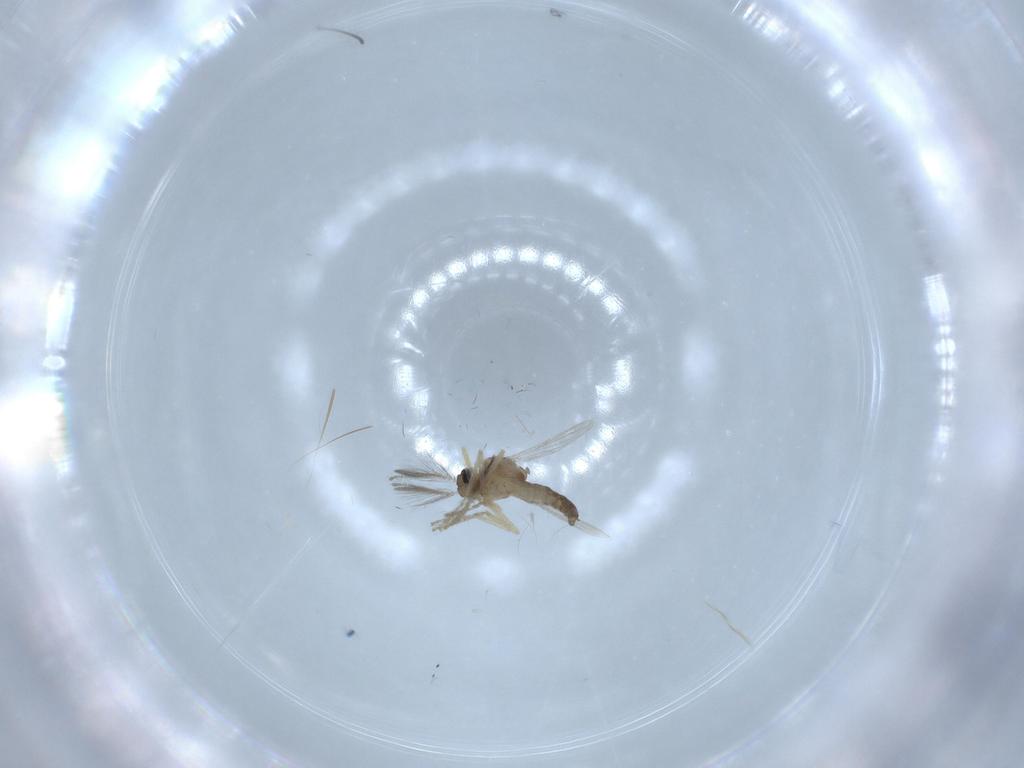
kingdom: Animalia
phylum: Arthropoda
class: Insecta
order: Diptera
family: Ceratopogonidae
